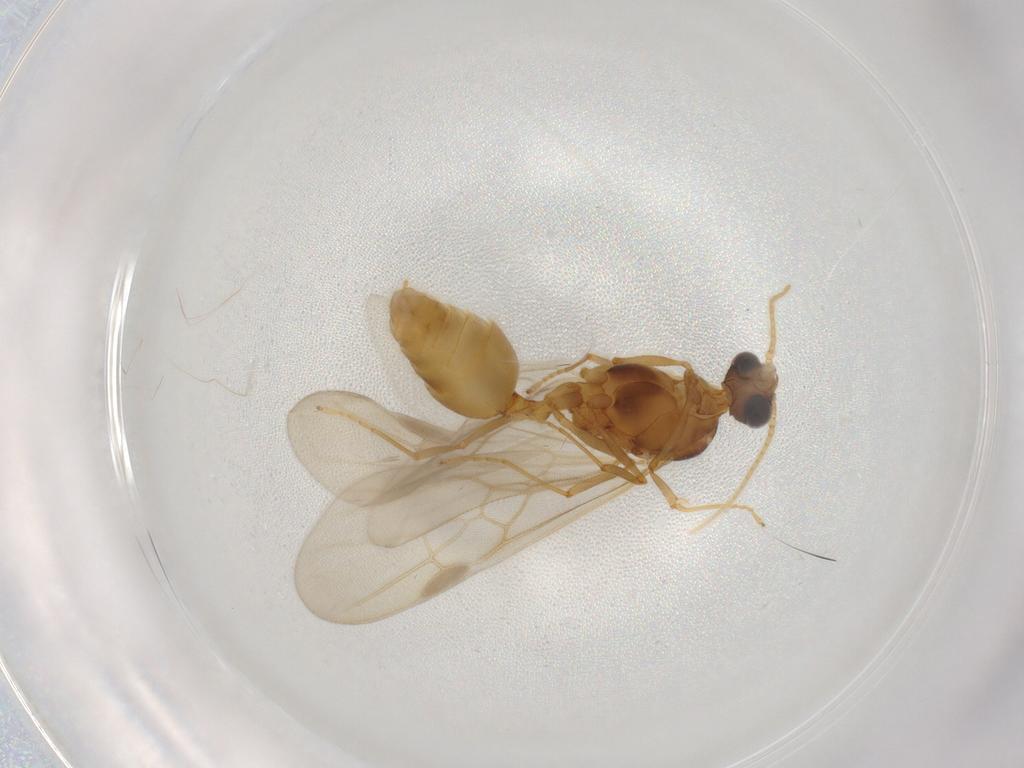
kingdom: Animalia
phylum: Arthropoda
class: Insecta
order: Hymenoptera
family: Formicidae
